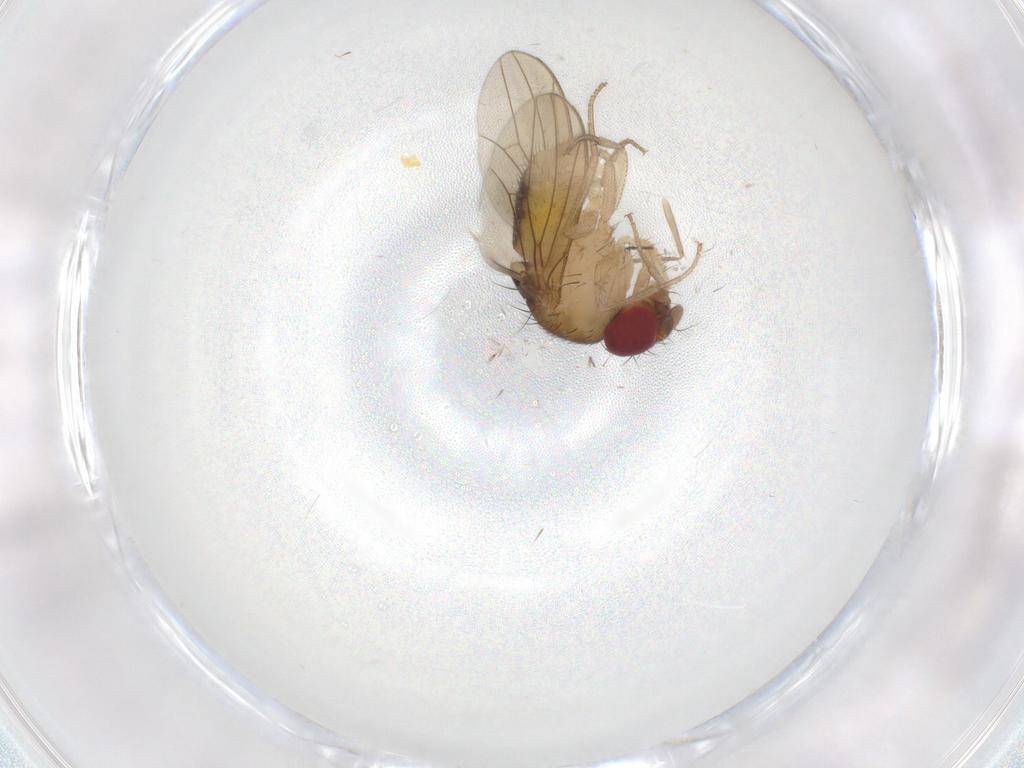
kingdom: Animalia
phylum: Arthropoda
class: Insecta
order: Diptera
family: Drosophilidae
